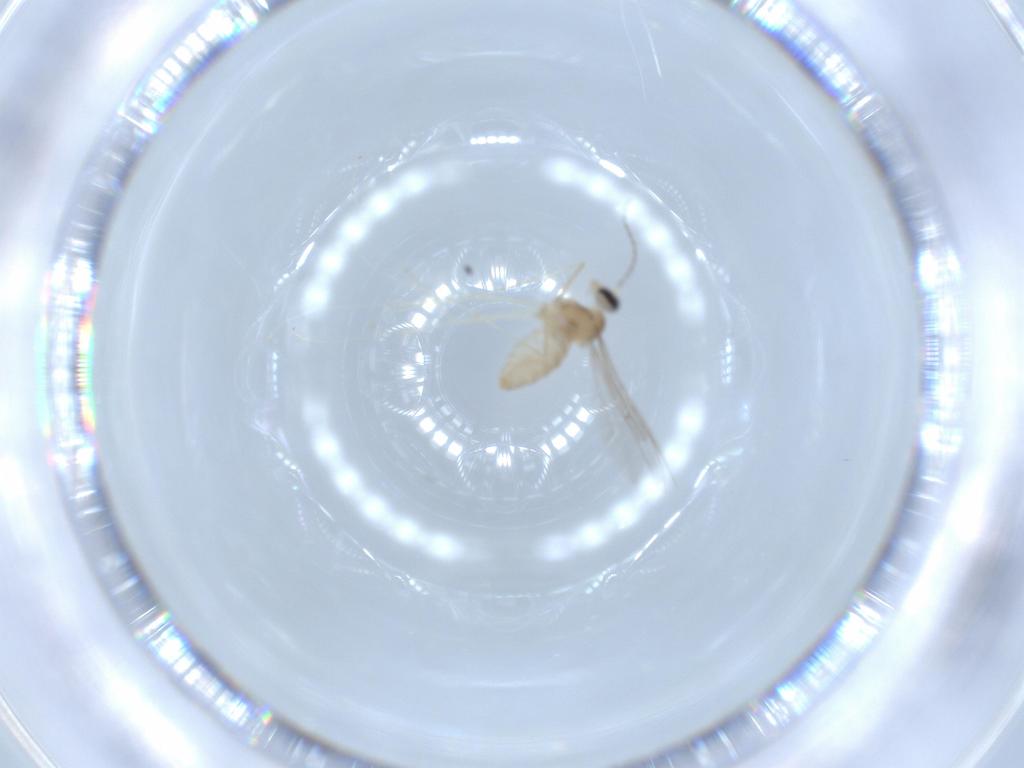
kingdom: Animalia
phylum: Arthropoda
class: Insecta
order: Diptera
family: Cecidomyiidae
